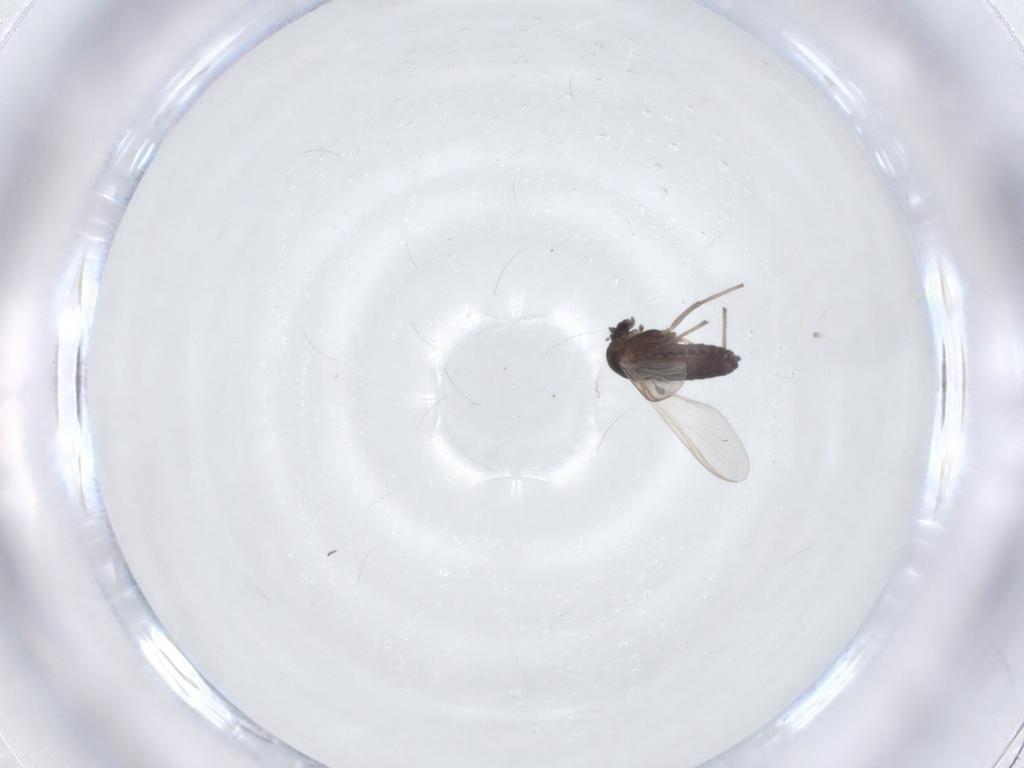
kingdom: Animalia
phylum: Arthropoda
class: Insecta
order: Diptera
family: Chironomidae
